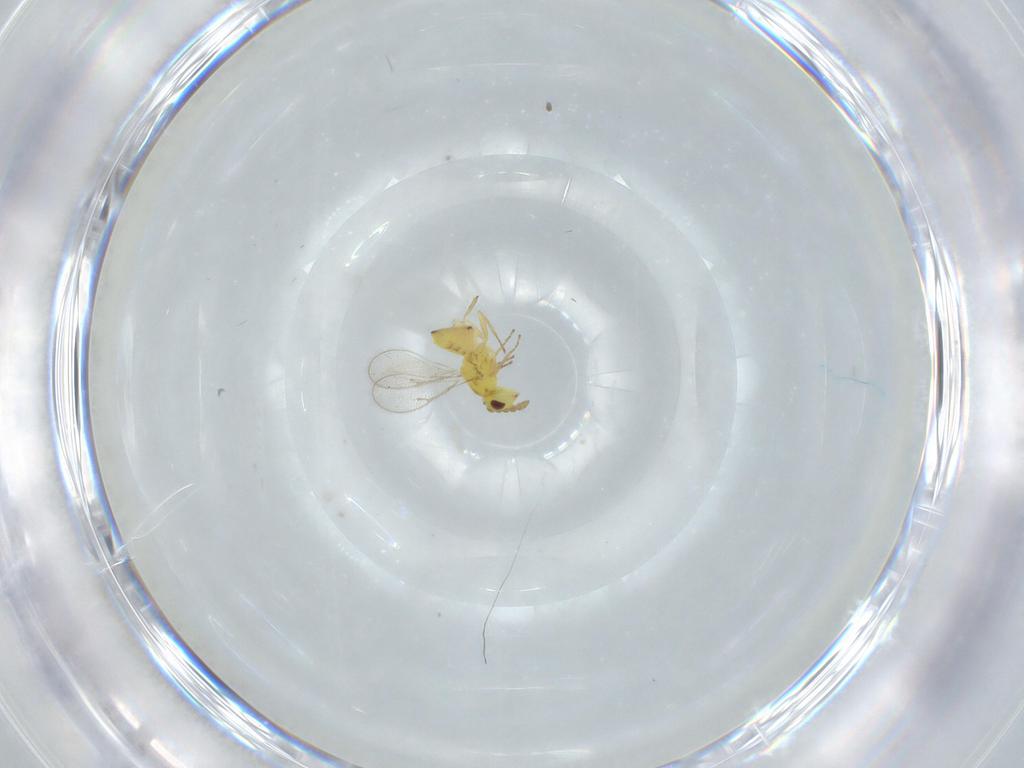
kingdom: Animalia
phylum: Arthropoda
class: Insecta
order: Hymenoptera
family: Eulophidae
